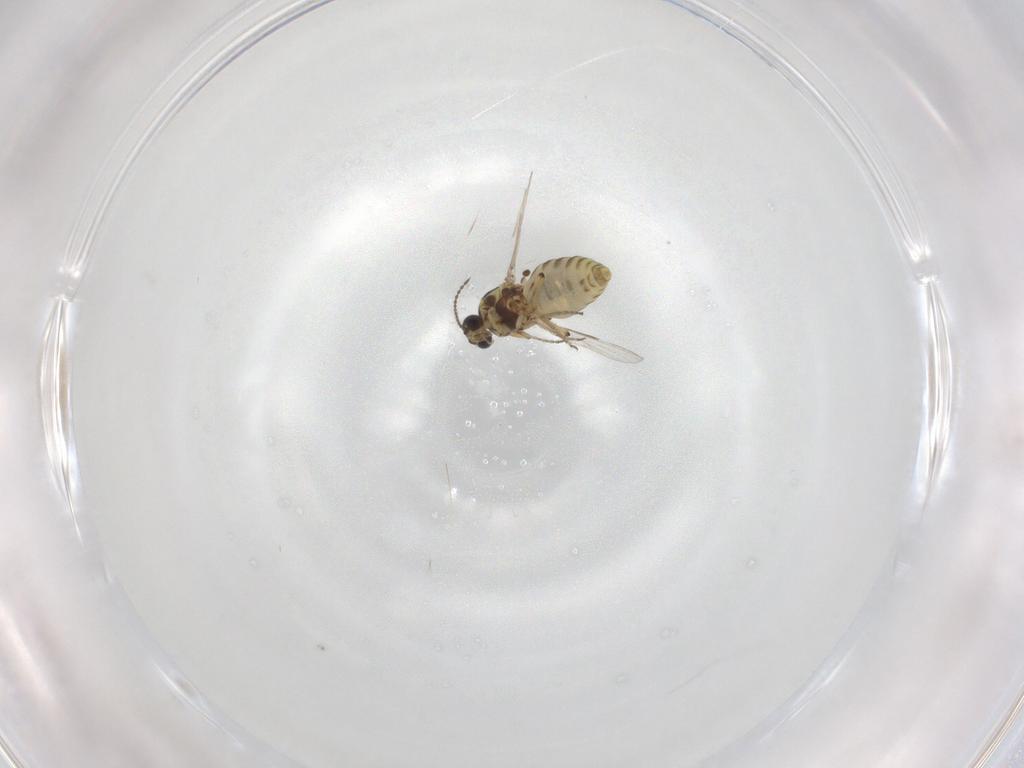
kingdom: Animalia
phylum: Arthropoda
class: Insecta
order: Diptera
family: Ceratopogonidae
